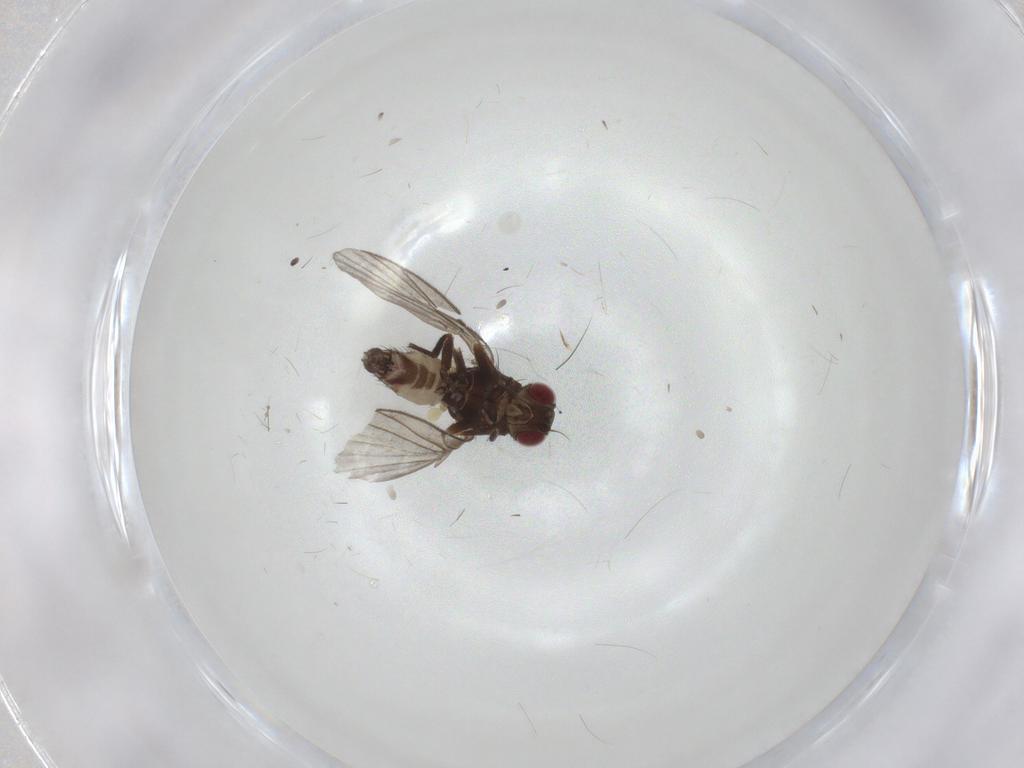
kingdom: Animalia
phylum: Arthropoda
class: Insecta
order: Diptera
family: Agromyzidae
